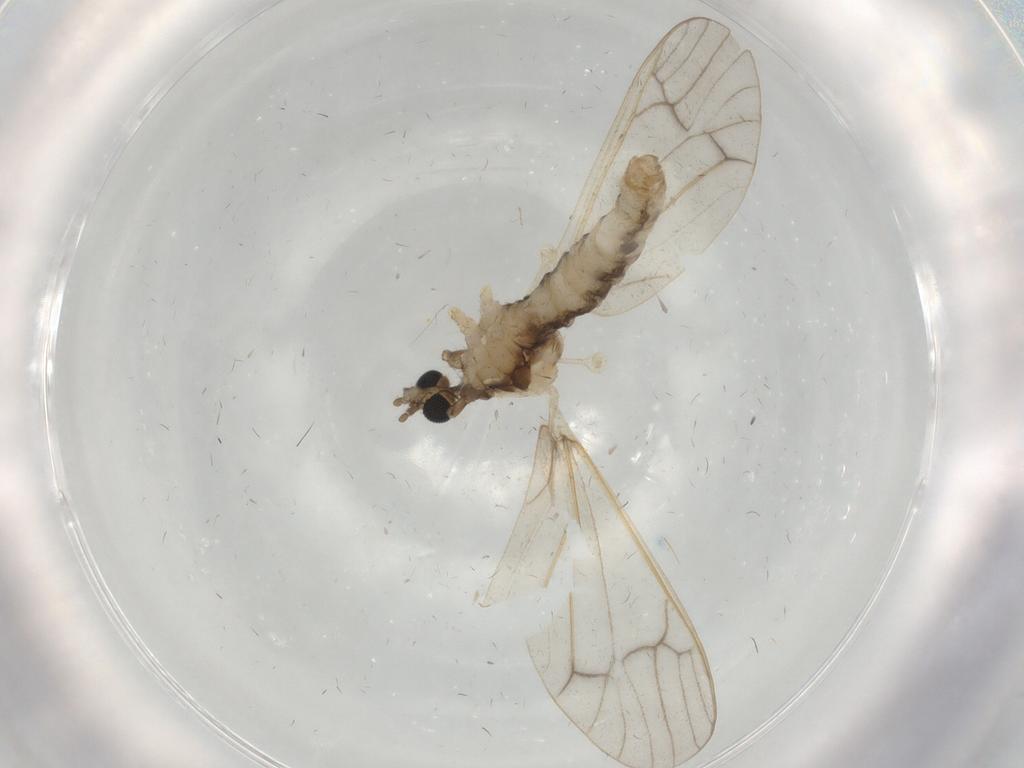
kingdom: Animalia
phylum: Arthropoda
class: Insecta
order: Diptera
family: Limoniidae
